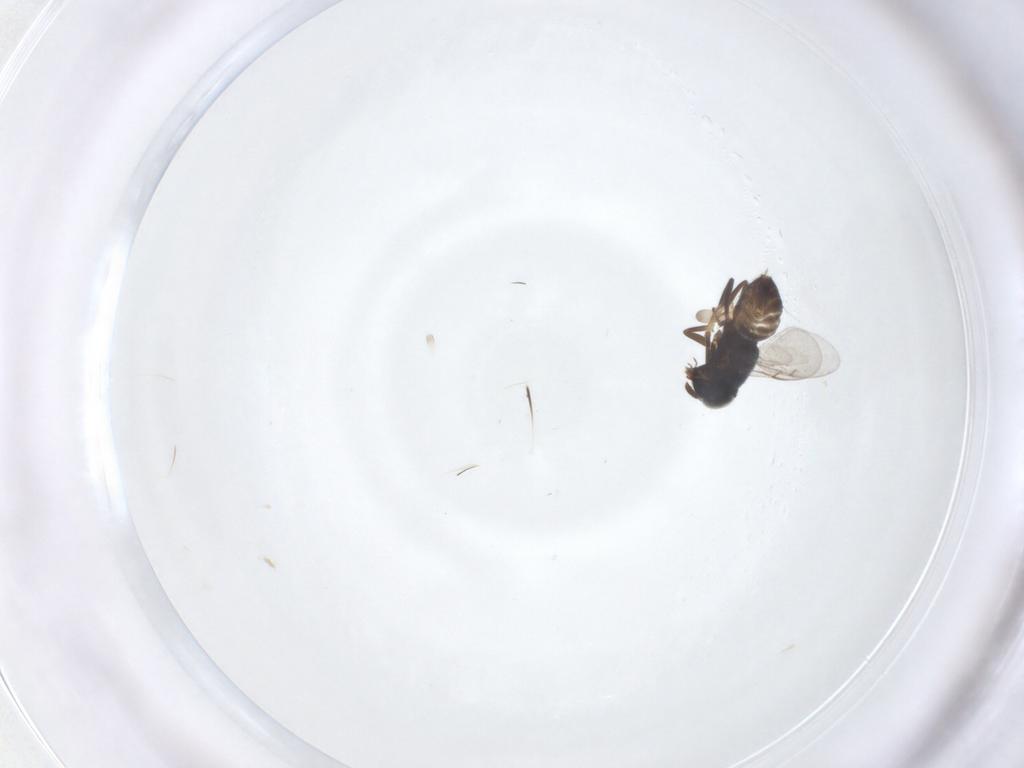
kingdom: Animalia
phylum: Arthropoda
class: Insecta
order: Hymenoptera
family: Encyrtidae
